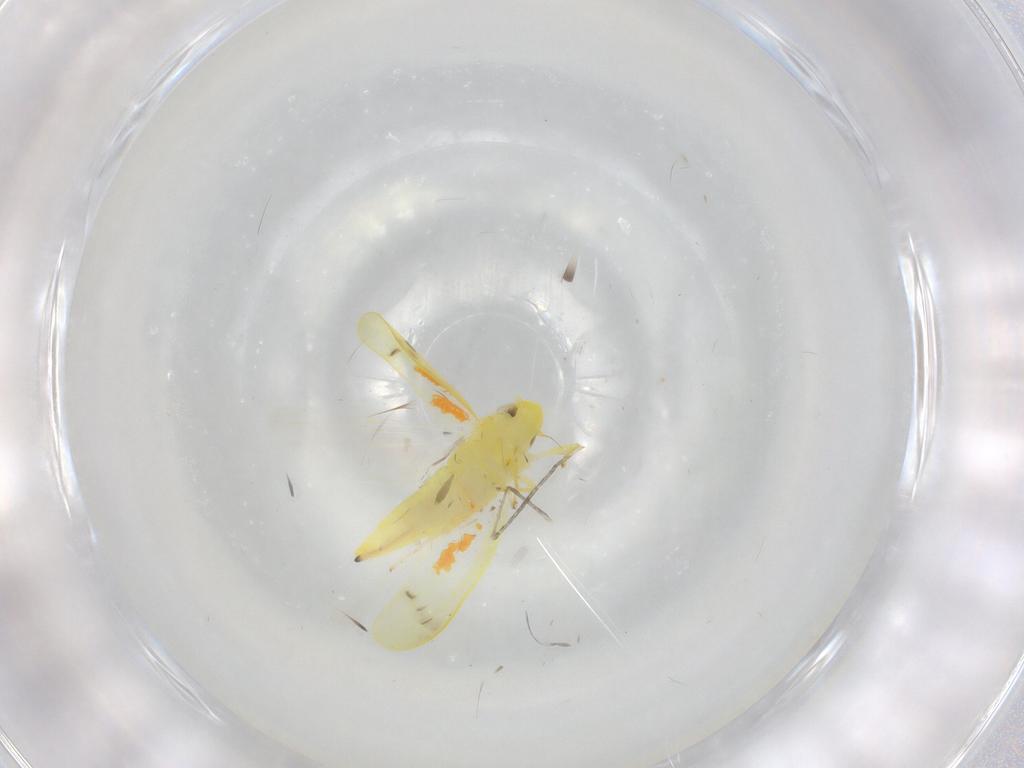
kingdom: Animalia
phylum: Arthropoda
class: Insecta
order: Hemiptera
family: Cicadellidae
